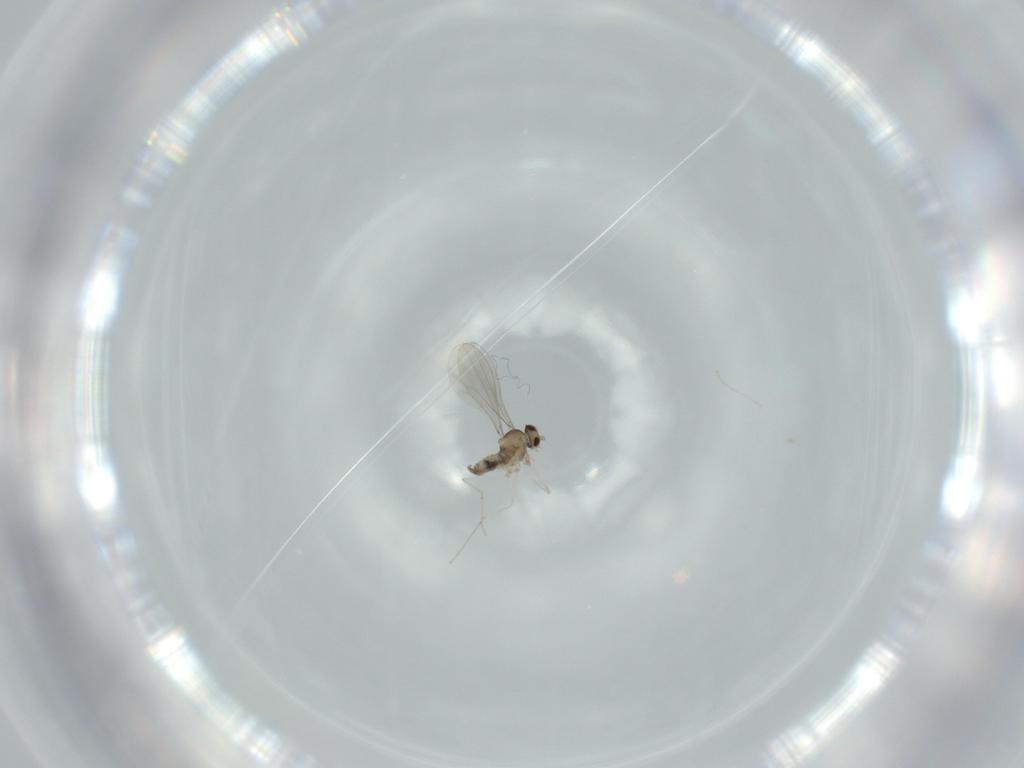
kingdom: Animalia
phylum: Arthropoda
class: Insecta
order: Diptera
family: Cecidomyiidae
